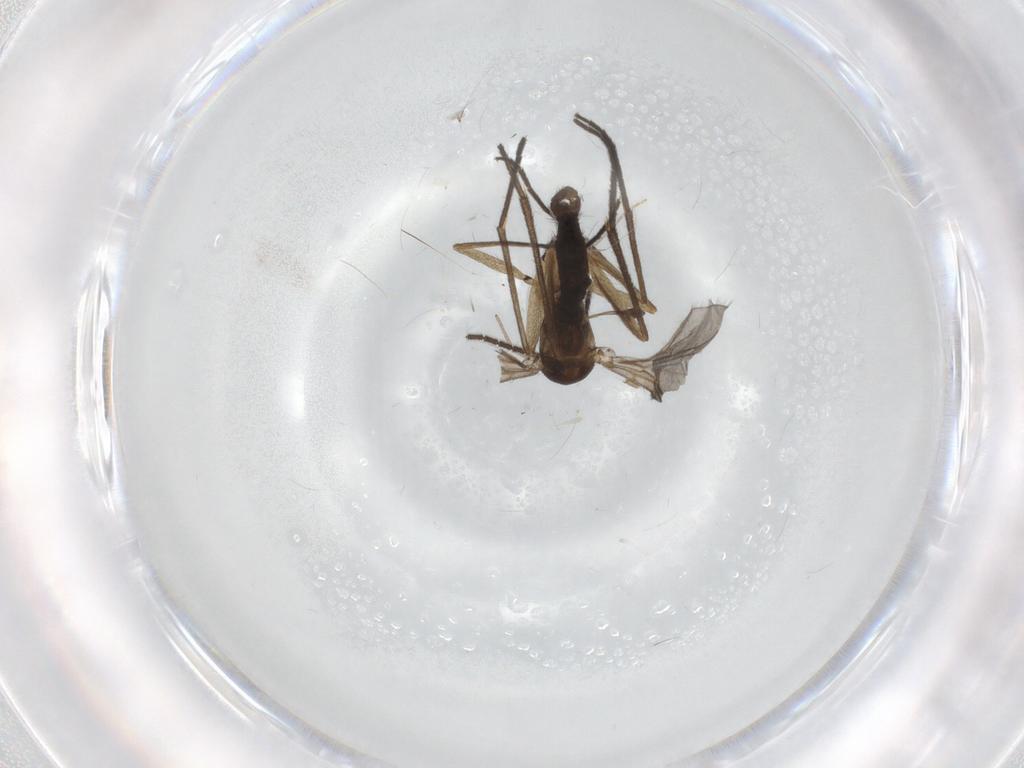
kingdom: Animalia
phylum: Arthropoda
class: Insecta
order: Diptera
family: Sciaridae
